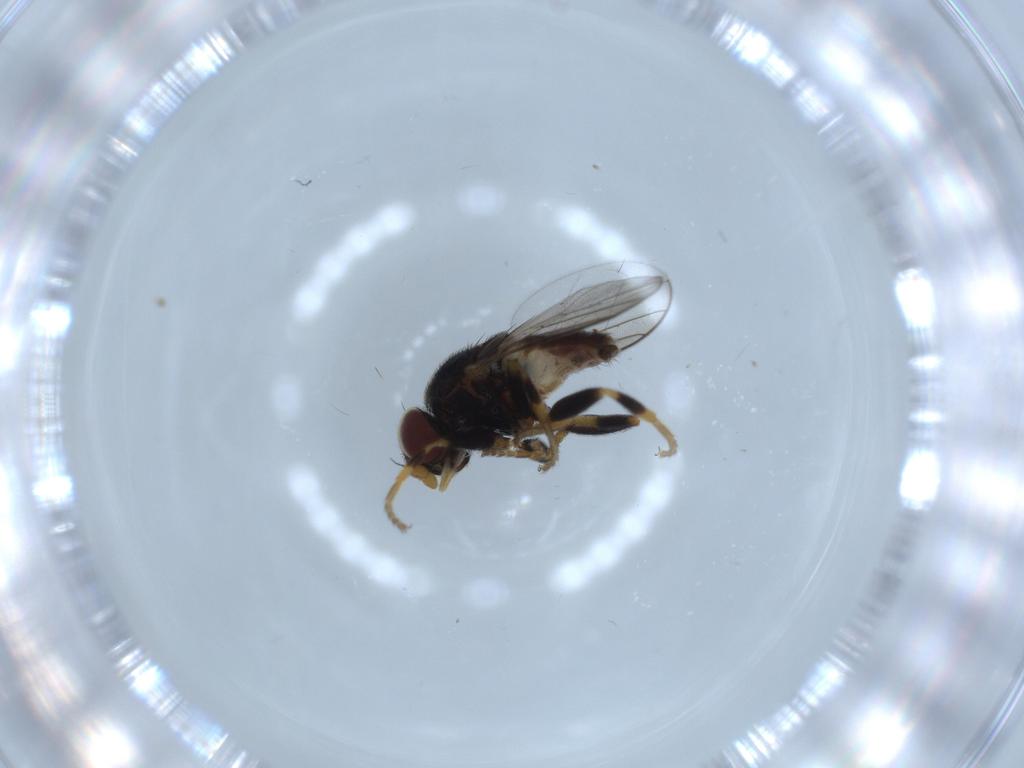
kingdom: Animalia
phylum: Arthropoda
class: Insecta
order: Diptera
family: Chloropidae
